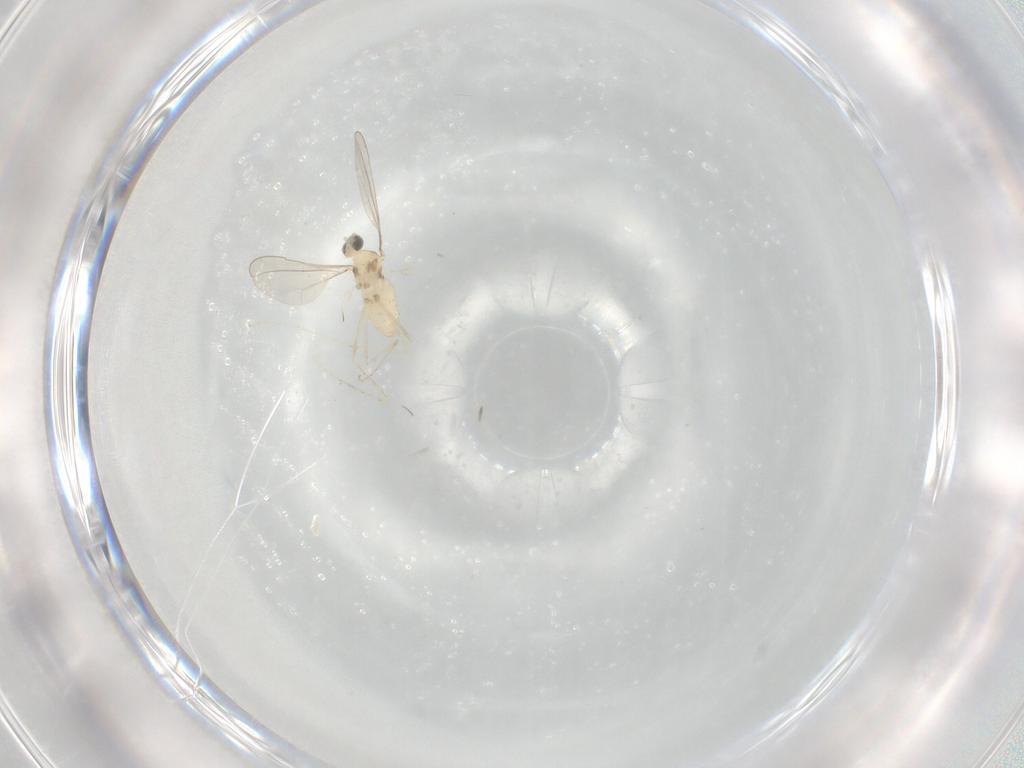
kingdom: Animalia
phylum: Arthropoda
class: Insecta
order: Diptera
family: Cecidomyiidae
